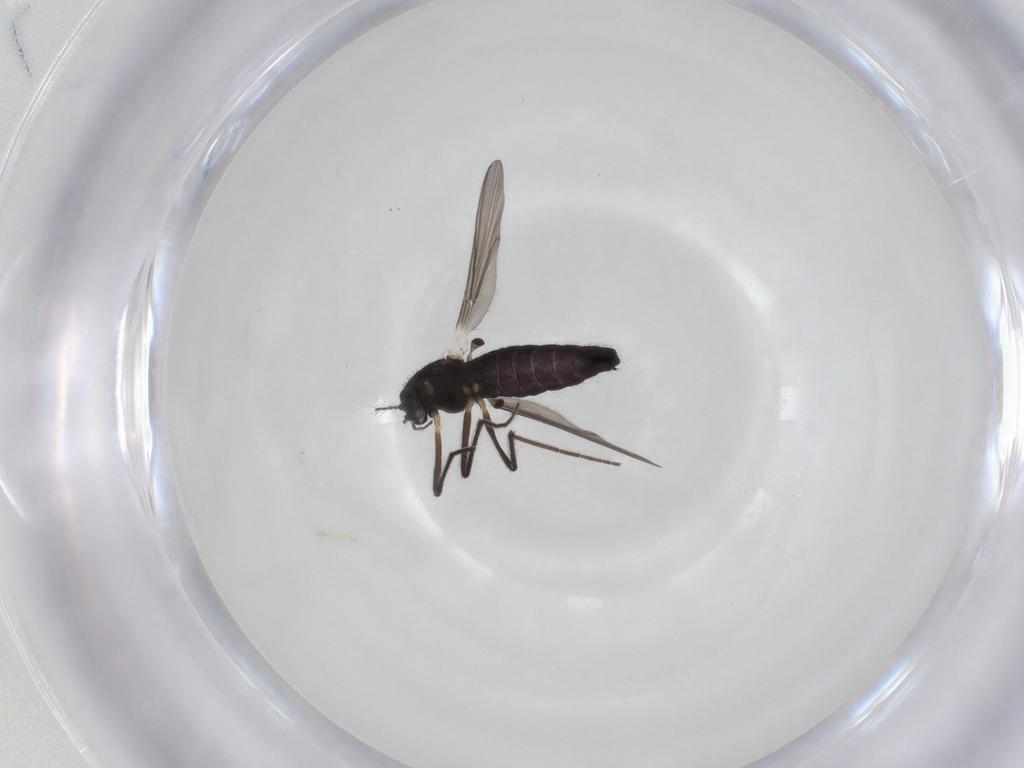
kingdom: Animalia
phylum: Arthropoda
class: Insecta
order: Diptera
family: Chironomidae
